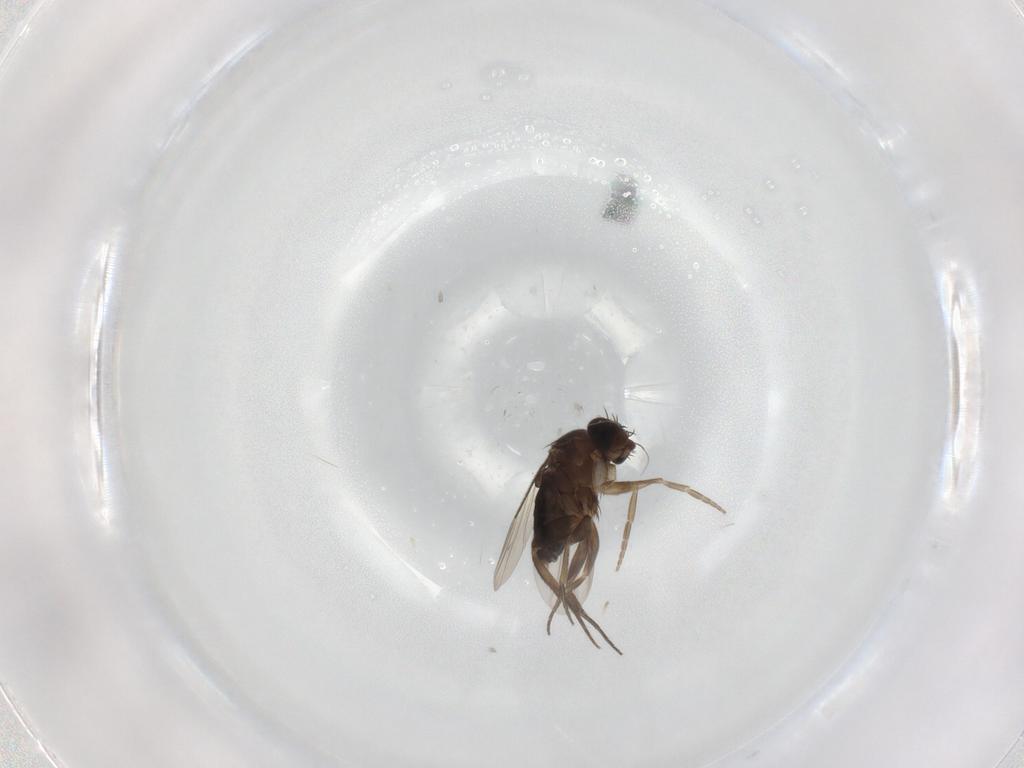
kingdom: Animalia
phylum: Arthropoda
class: Insecta
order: Diptera
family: Phoridae
